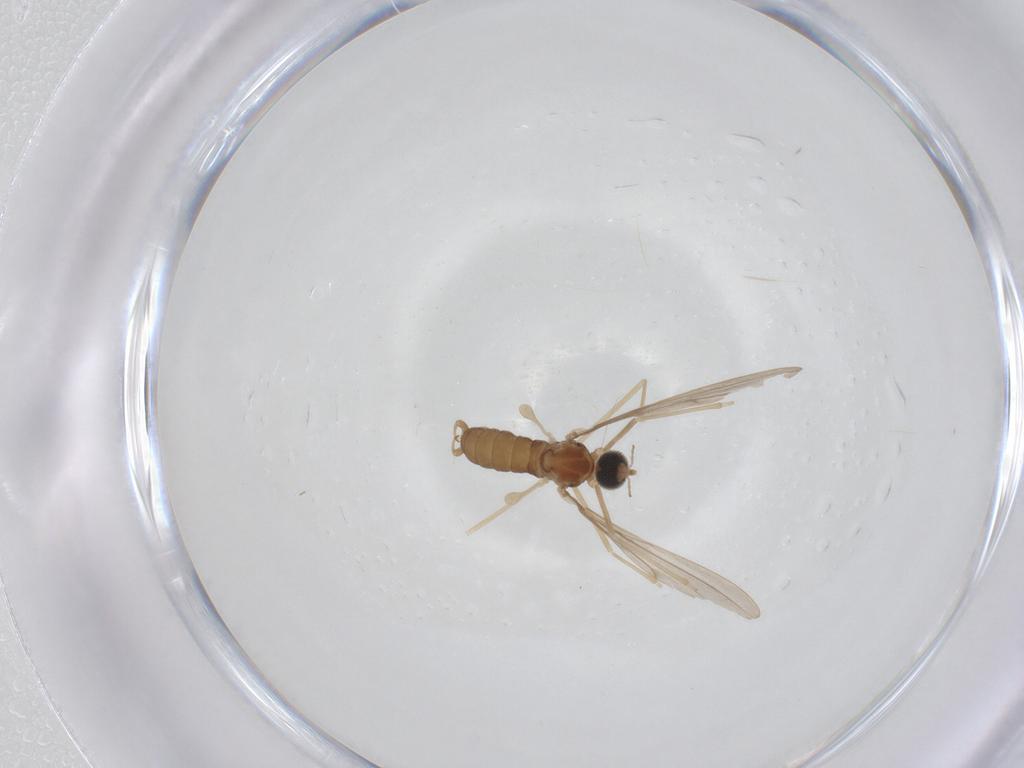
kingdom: Animalia
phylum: Arthropoda
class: Insecta
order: Diptera
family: Cecidomyiidae
